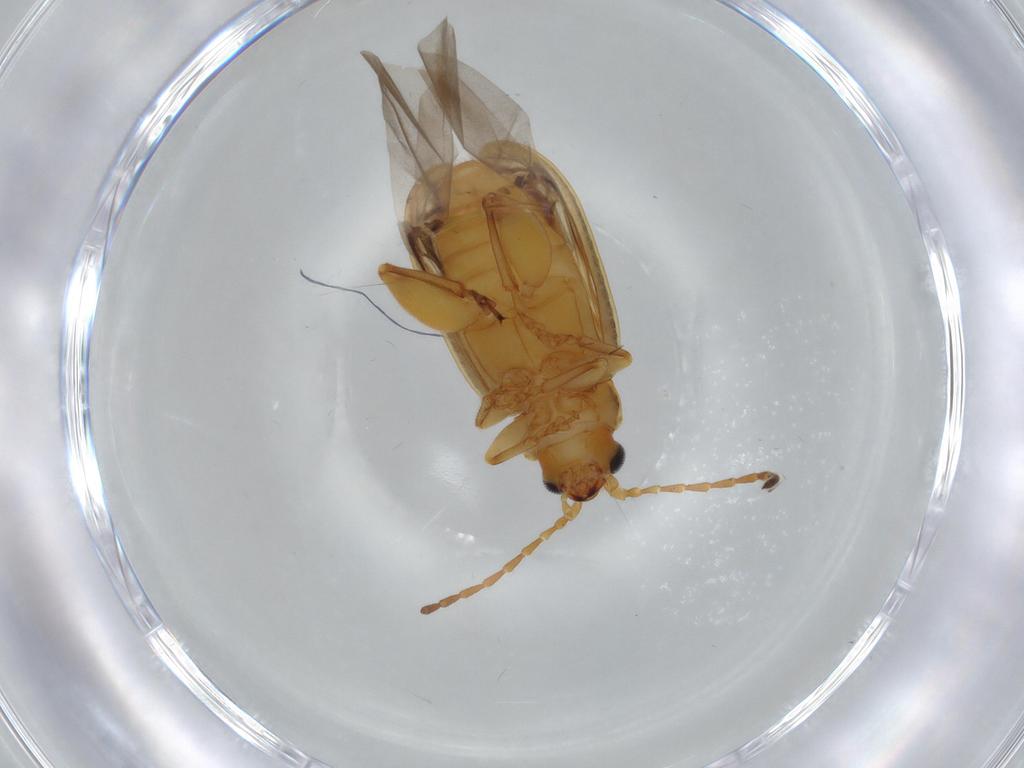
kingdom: Animalia
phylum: Arthropoda
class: Insecta
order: Coleoptera
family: Chrysomelidae
